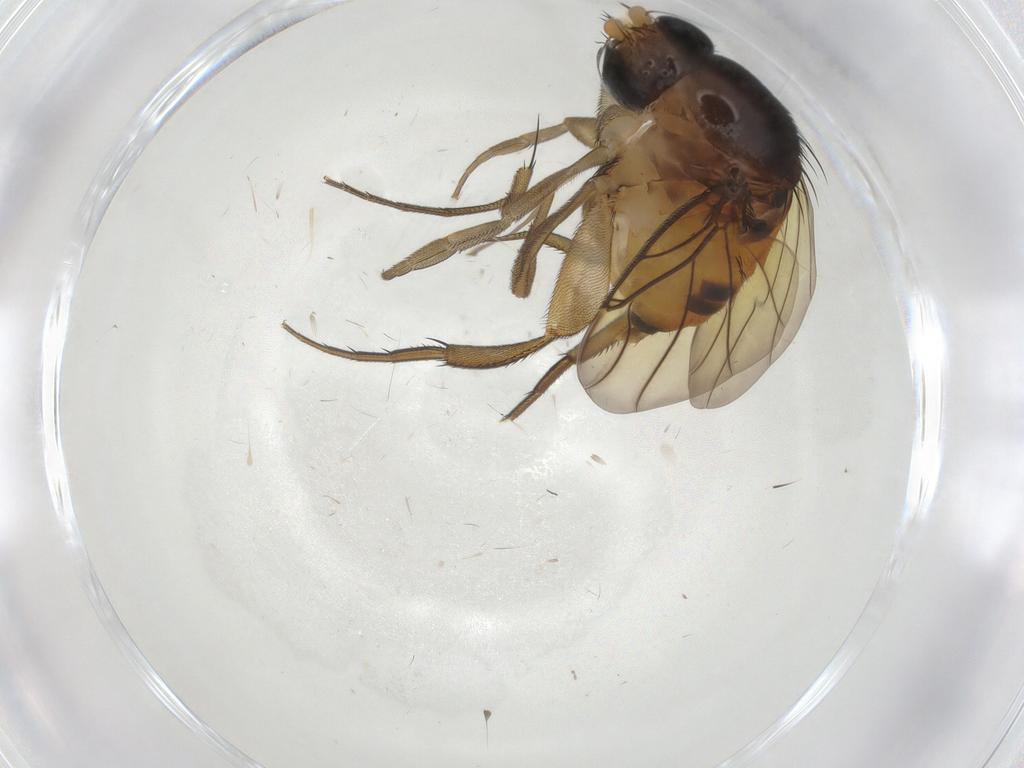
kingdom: Animalia
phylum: Arthropoda
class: Insecta
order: Diptera
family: Phoridae
